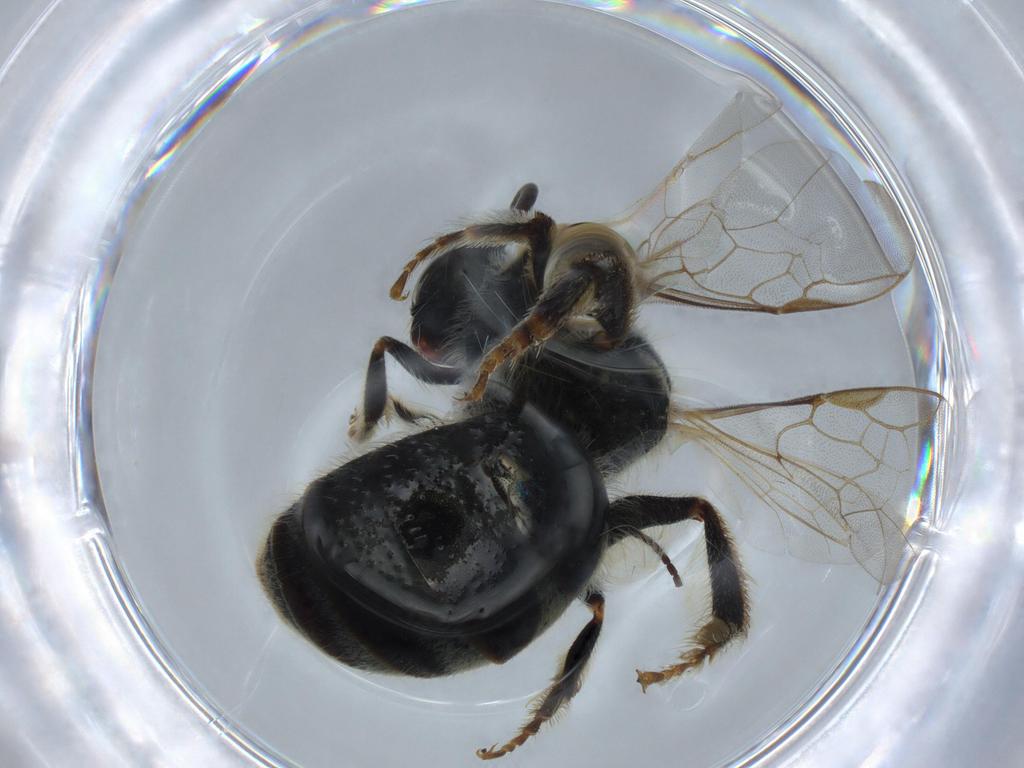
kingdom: Animalia
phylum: Arthropoda
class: Insecta
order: Hymenoptera
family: Halictidae
